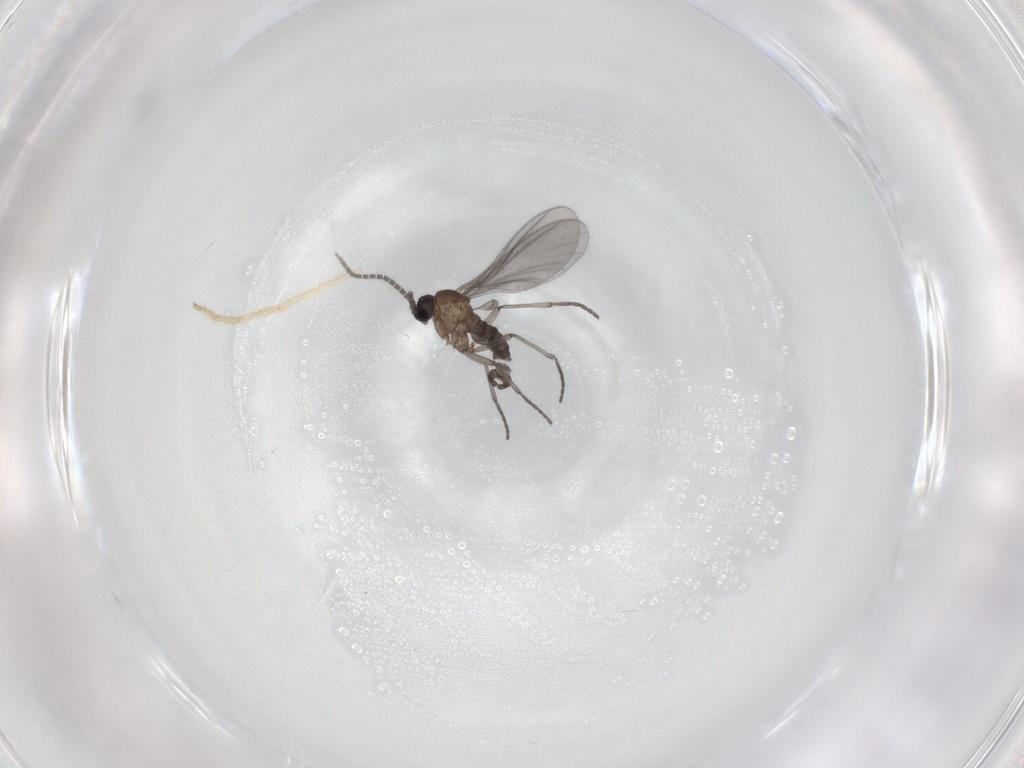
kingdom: Animalia
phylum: Arthropoda
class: Insecta
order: Diptera
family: Sciaridae
